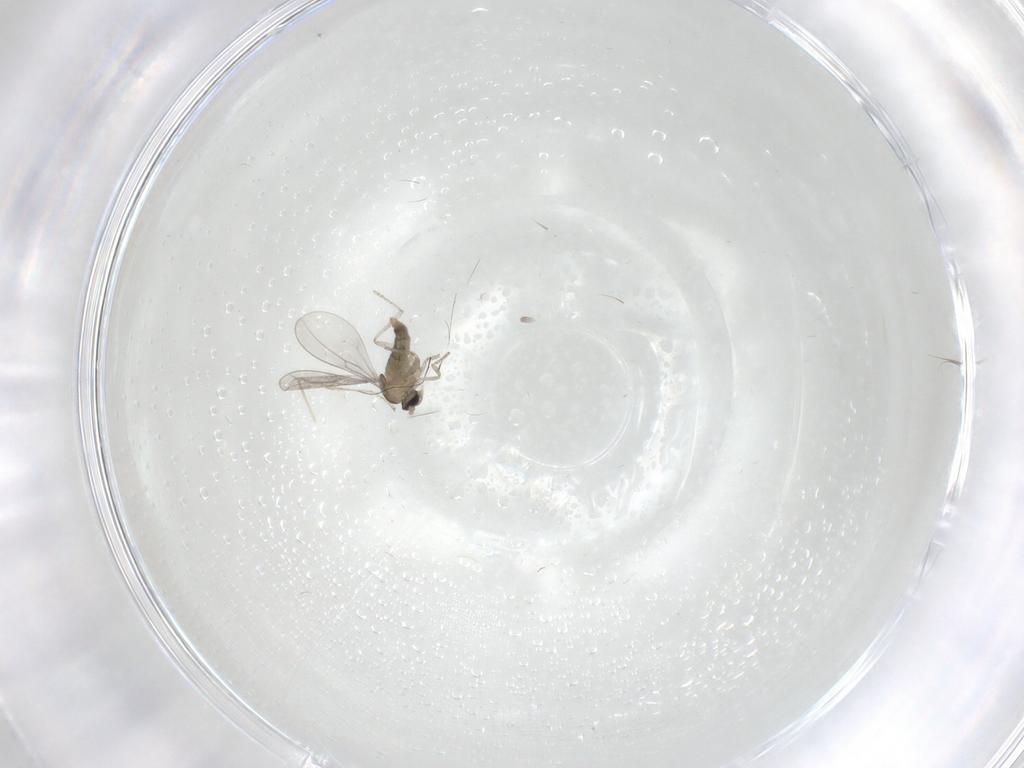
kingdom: Animalia
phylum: Arthropoda
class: Insecta
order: Diptera
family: Cecidomyiidae
